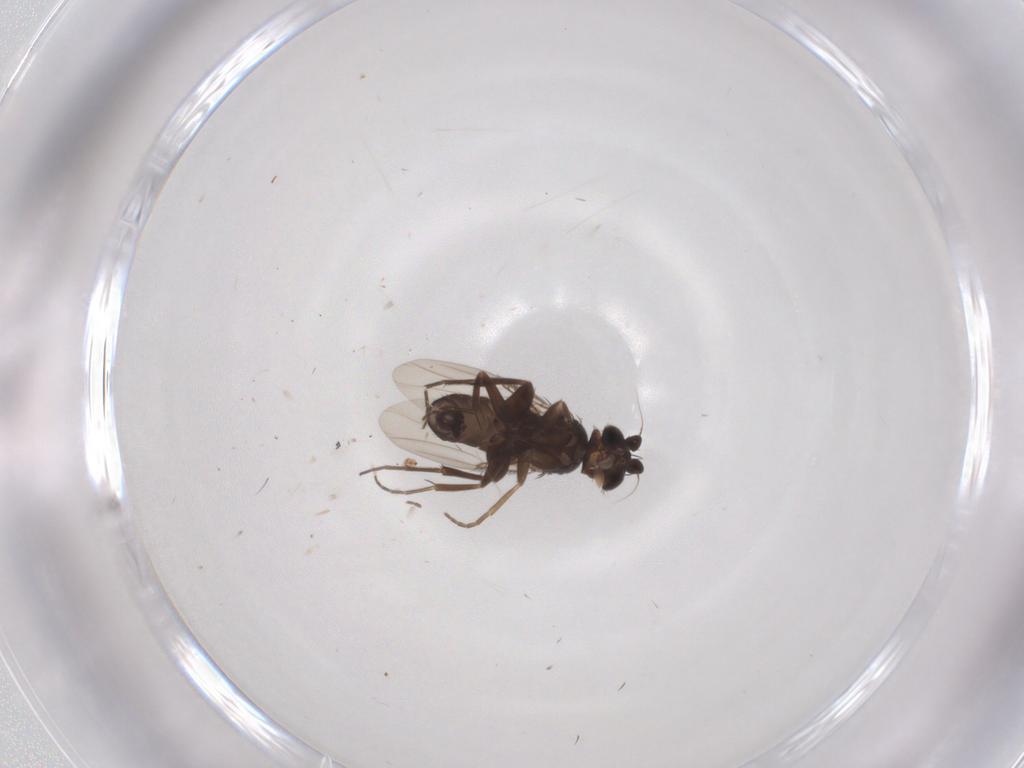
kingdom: Animalia
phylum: Arthropoda
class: Insecta
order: Diptera
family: Phoridae
